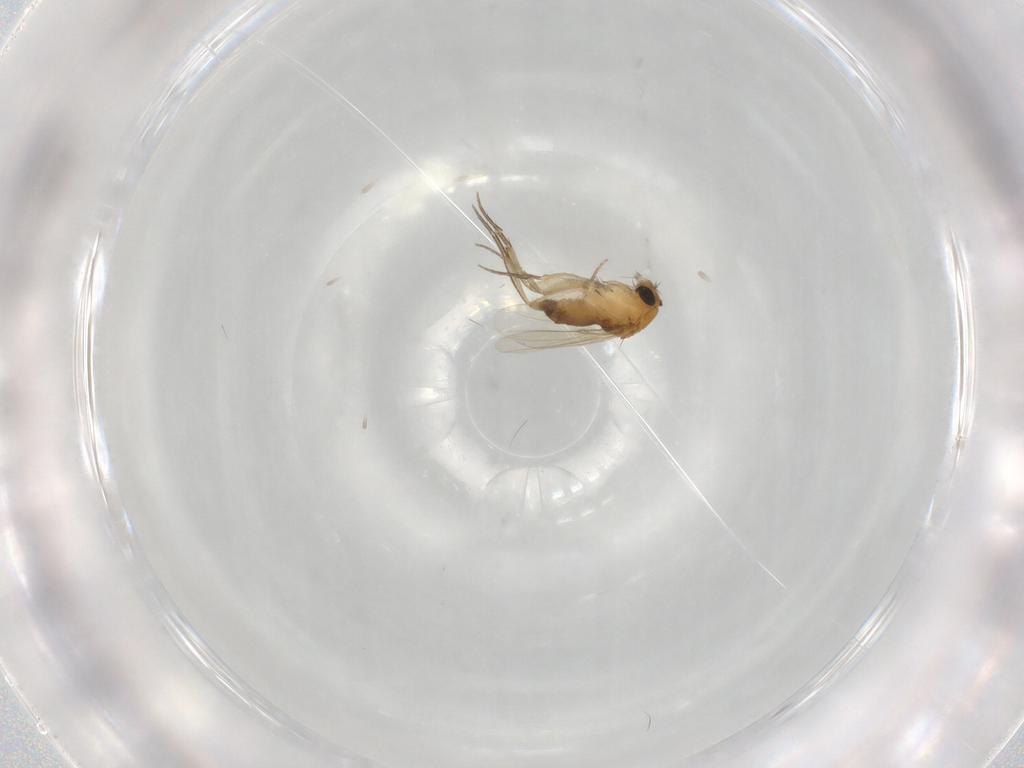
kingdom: Animalia
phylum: Arthropoda
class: Insecta
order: Diptera
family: Phoridae
